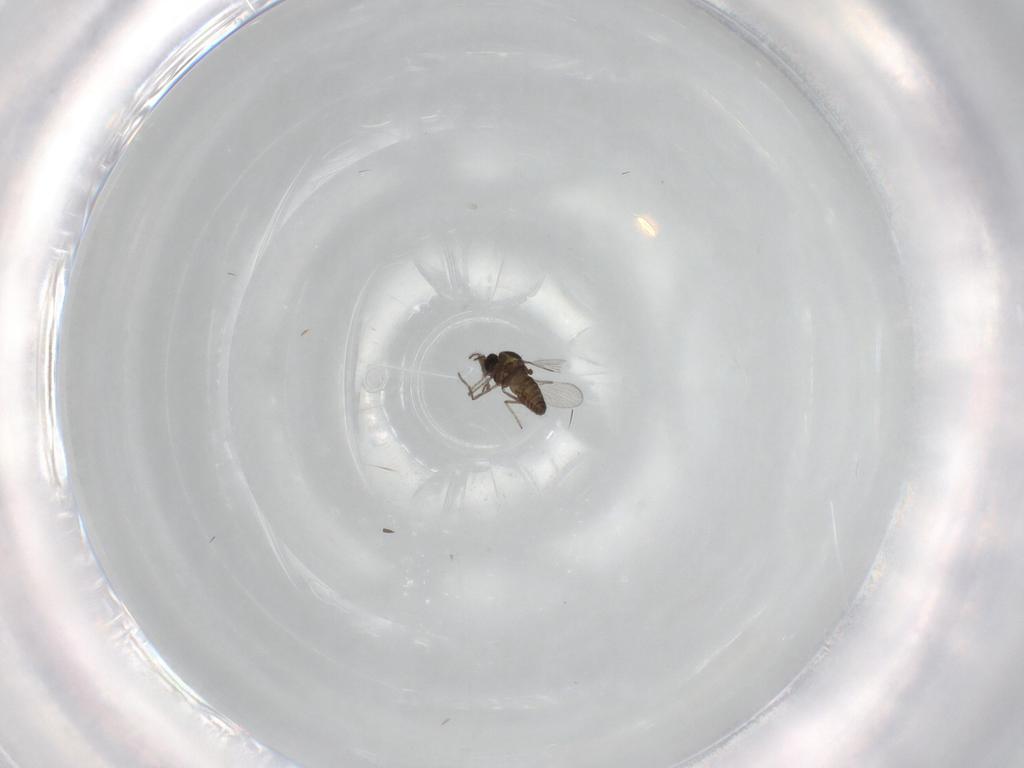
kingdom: Animalia
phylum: Arthropoda
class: Insecta
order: Diptera
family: Ceratopogonidae
